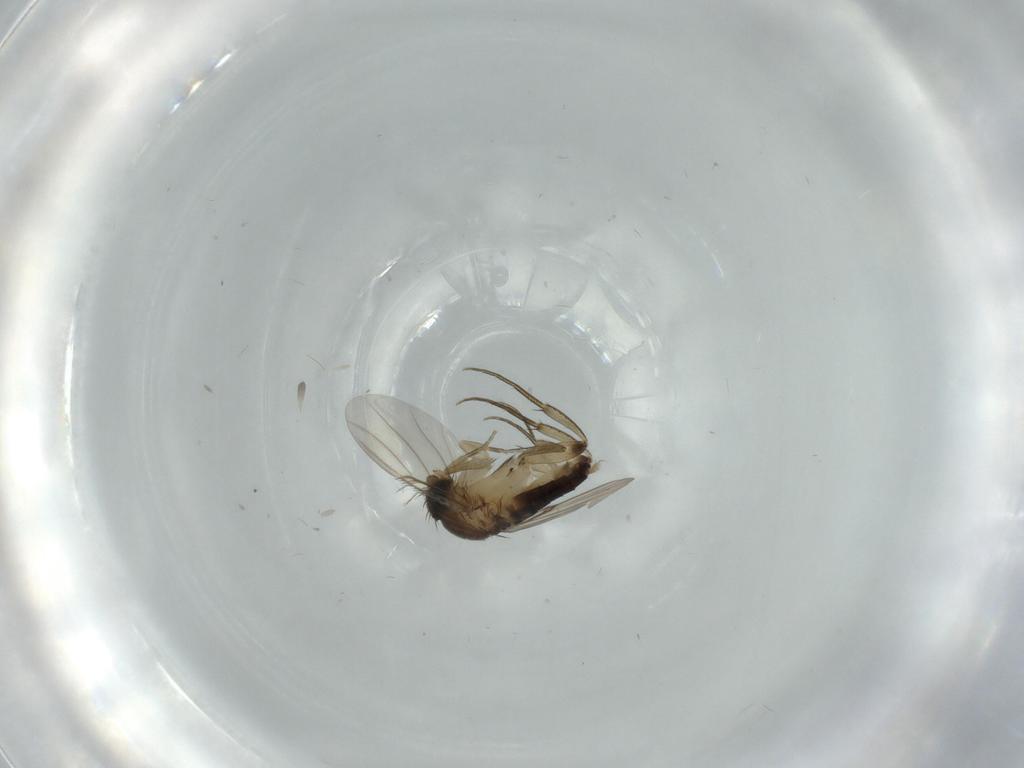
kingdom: Animalia
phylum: Arthropoda
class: Insecta
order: Diptera
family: Phoridae
